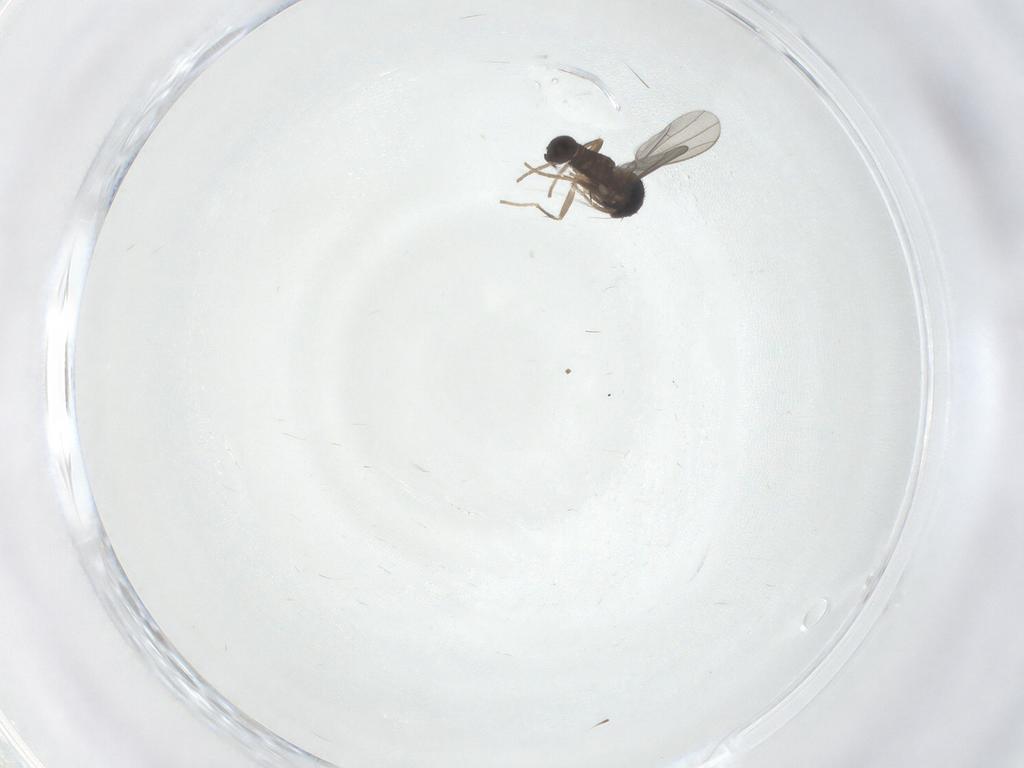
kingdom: Animalia
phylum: Arthropoda
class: Insecta
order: Diptera
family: Dolichopodidae
